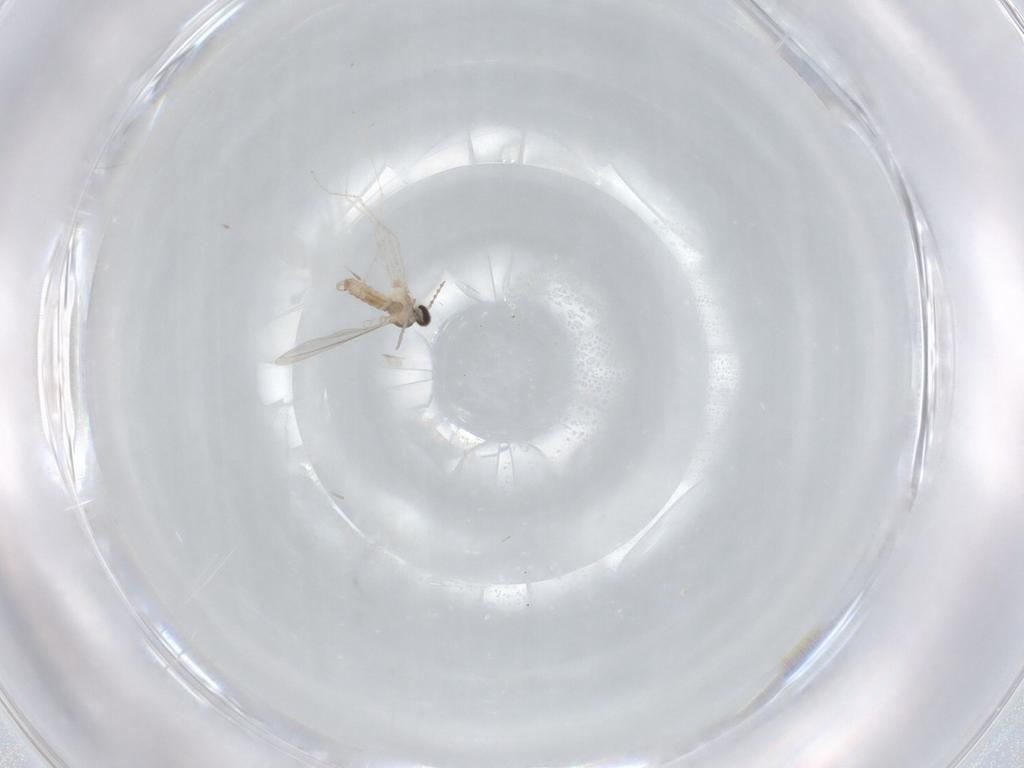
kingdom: Animalia
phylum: Arthropoda
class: Insecta
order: Diptera
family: Cecidomyiidae
